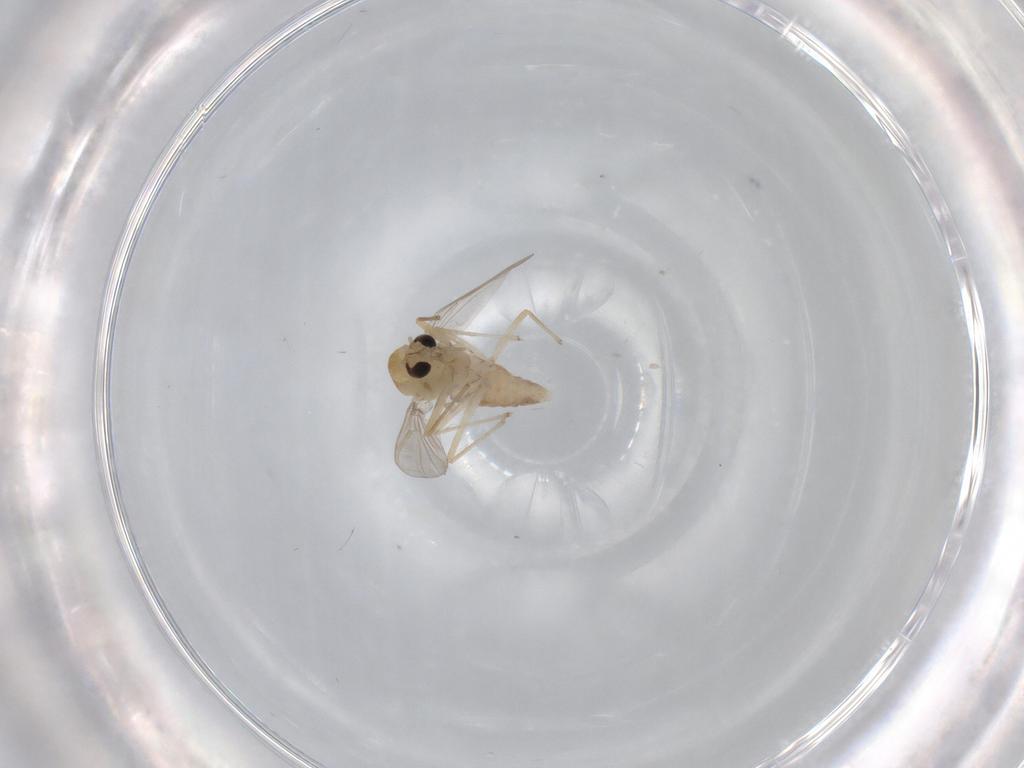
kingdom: Animalia
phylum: Arthropoda
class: Insecta
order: Diptera
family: Chironomidae
